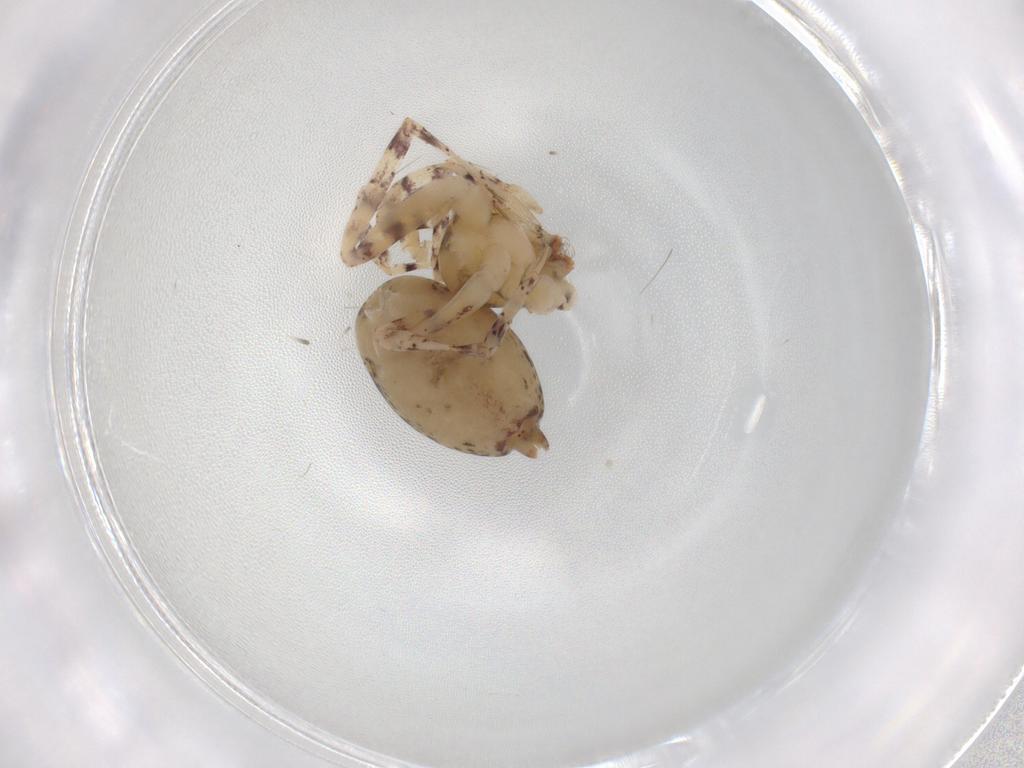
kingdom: Animalia
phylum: Arthropoda
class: Arachnida
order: Araneae
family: Anyphaenidae
